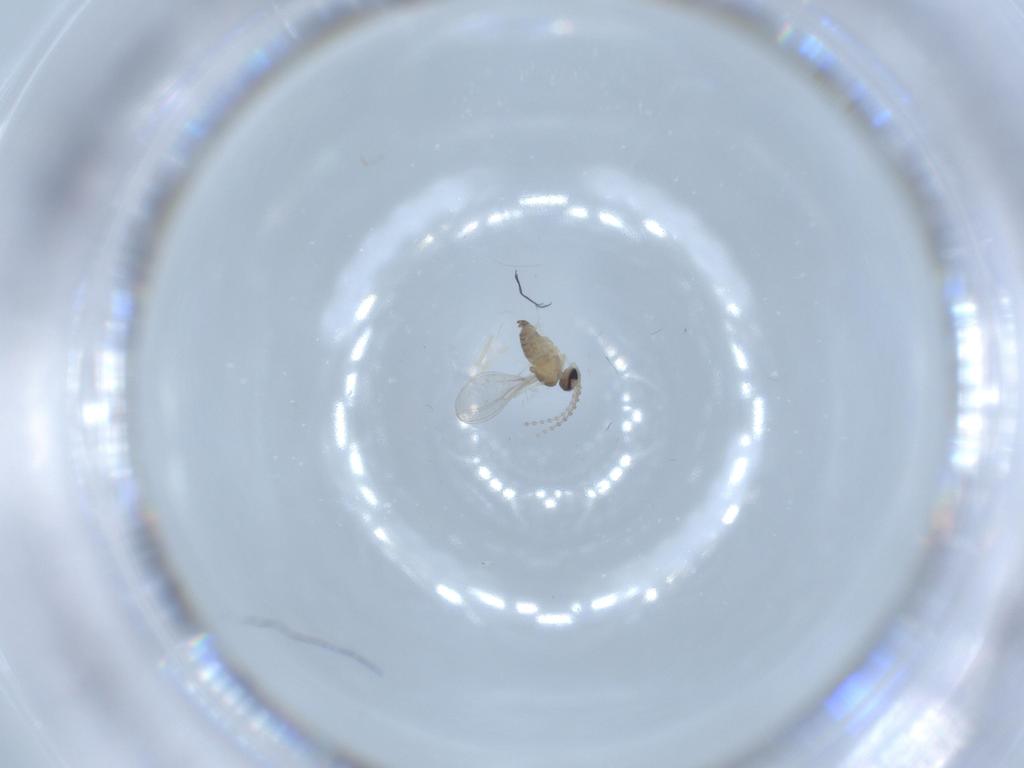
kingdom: Animalia
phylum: Arthropoda
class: Insecta
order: Diptera
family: Cecidomyiidae
